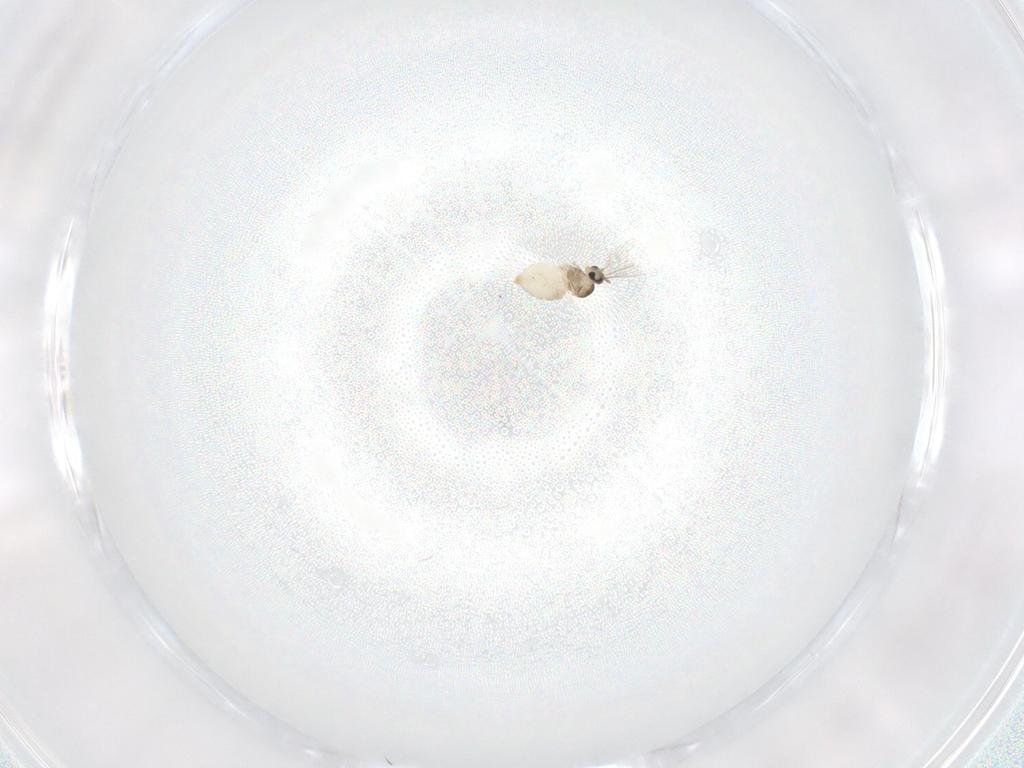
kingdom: Animalia
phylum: Arthropoda
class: Insecta
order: Diptera
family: Cecidomyiidae
